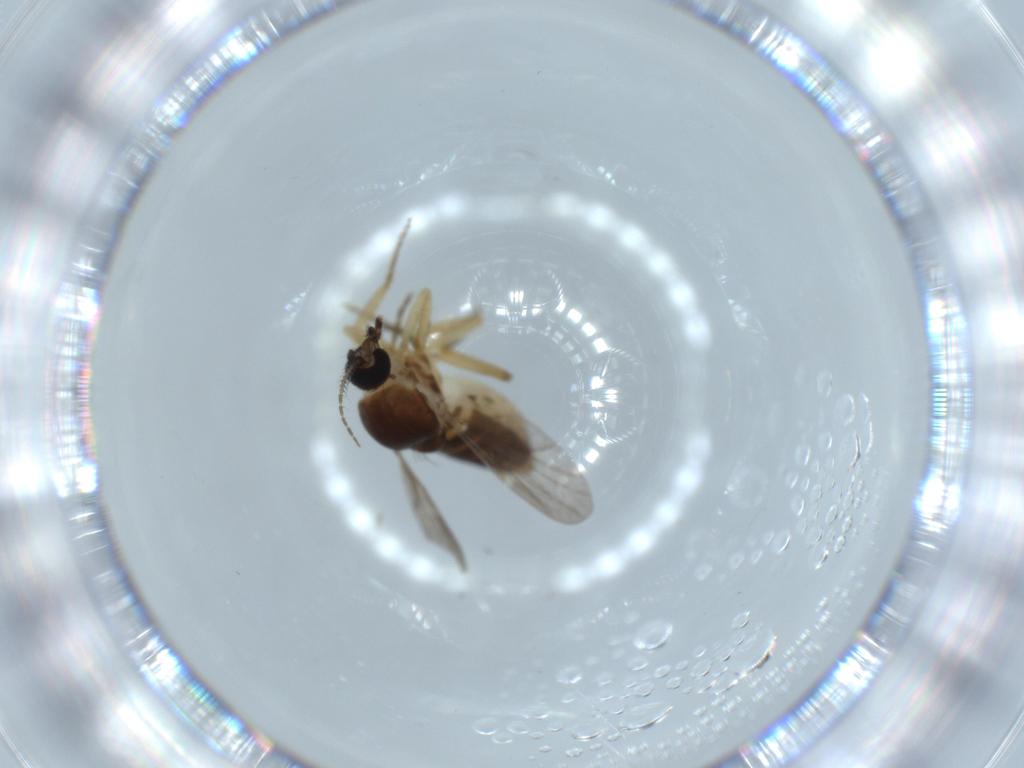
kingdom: Animalia
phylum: Arthropoda
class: Insecta
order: Diptera
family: Ceratopogonidae
